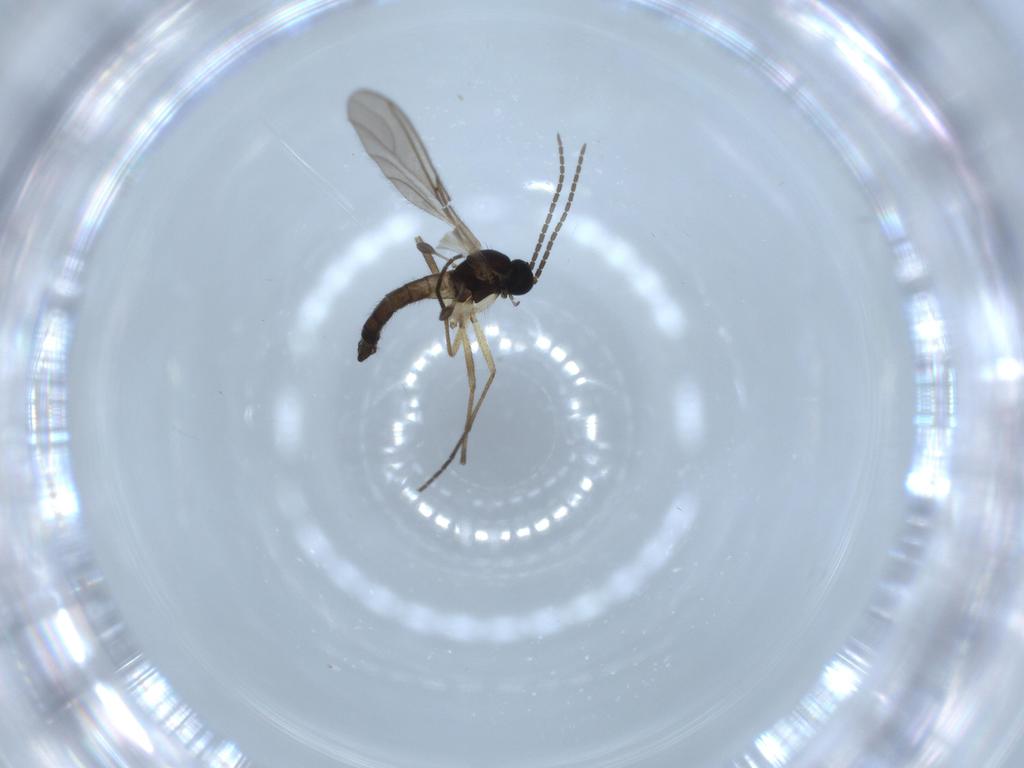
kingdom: Animalia
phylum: Arthropoda
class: Insecta
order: Diptera
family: Sciaridae
